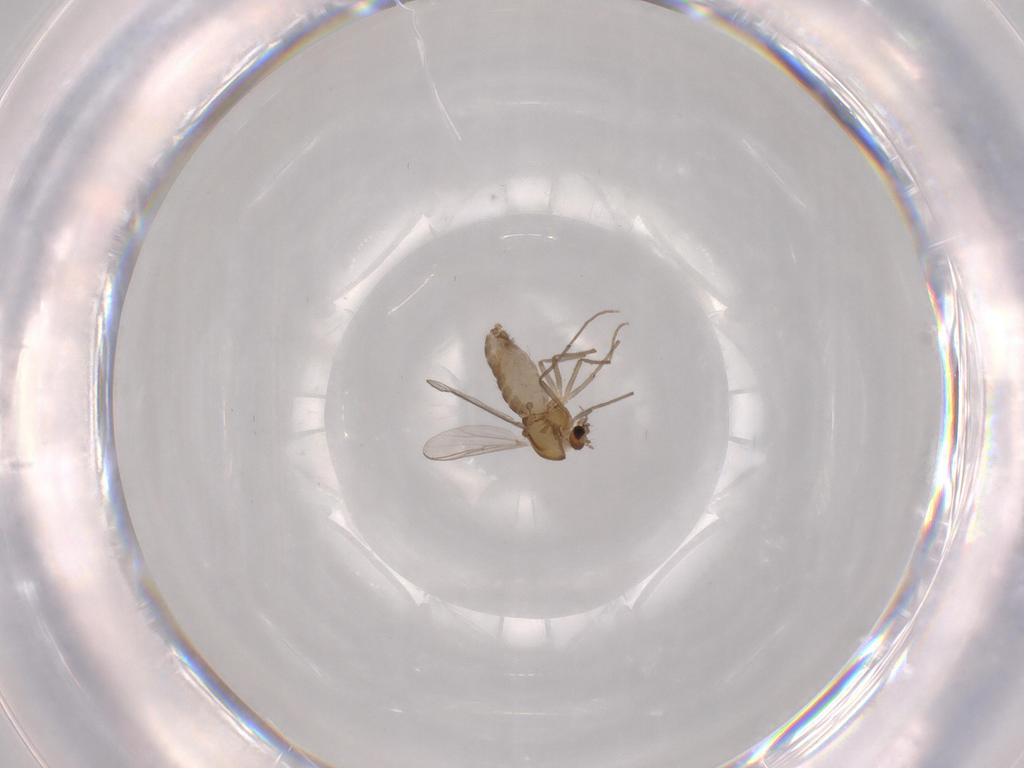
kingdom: Animalia
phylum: Arthropoda
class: Insecta
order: Diptera
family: Chironomidae
